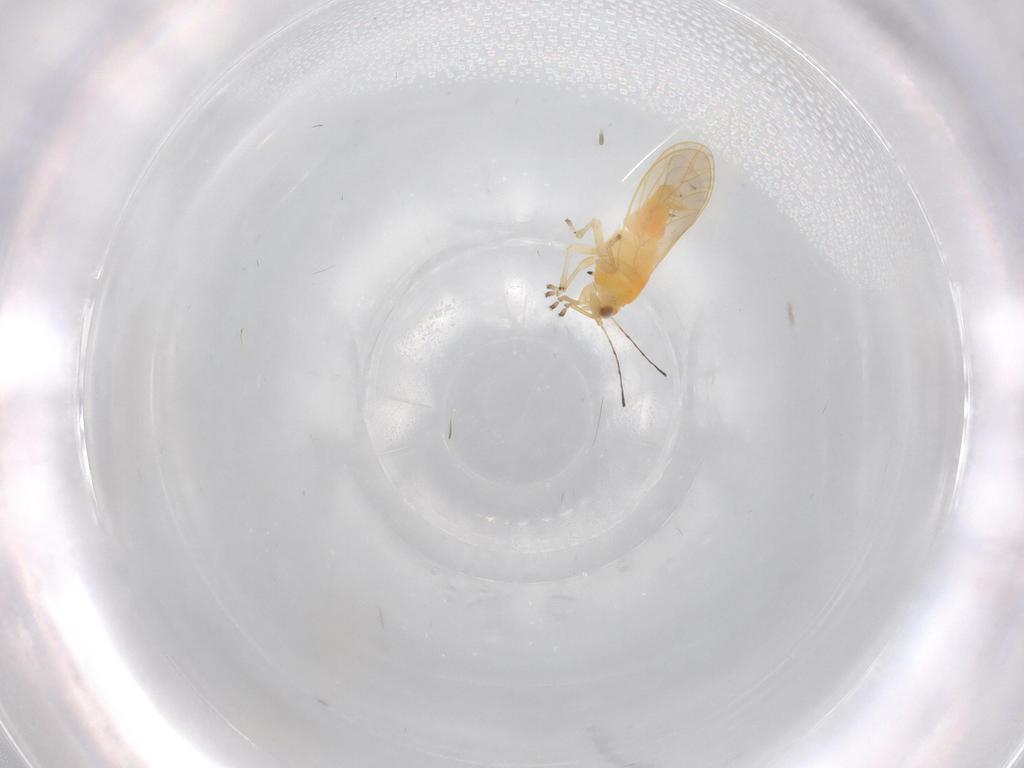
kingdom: Animalia
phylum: Arthropoda
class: Insecta
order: Hemiptera
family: Triozidae
